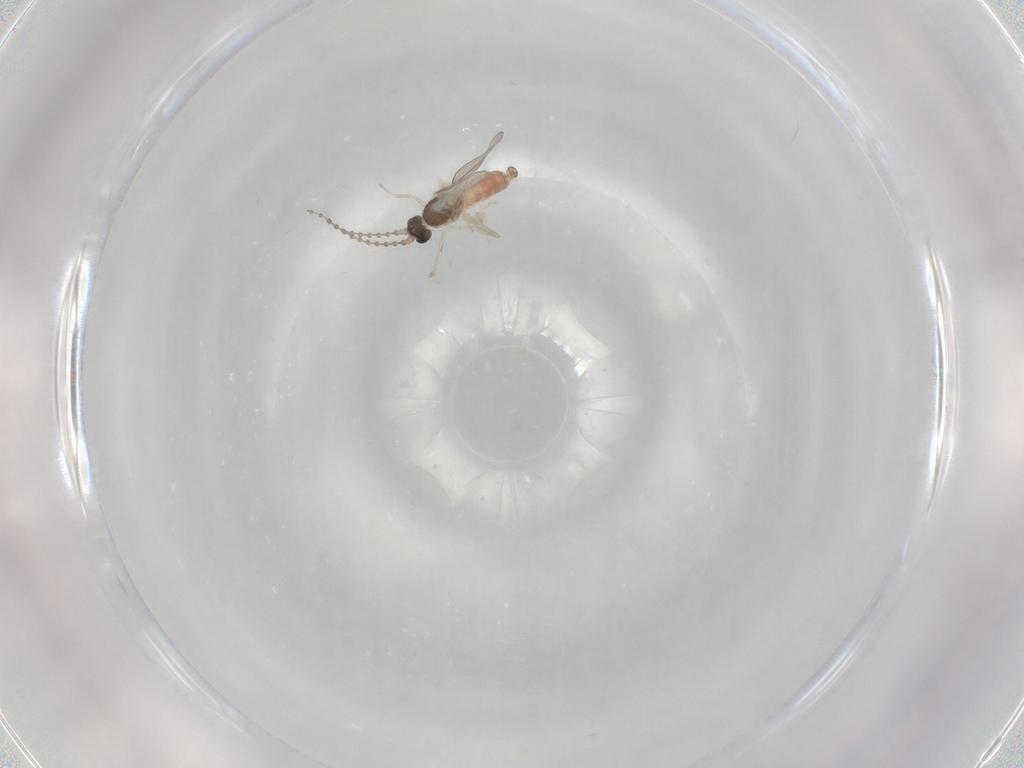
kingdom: Animalia
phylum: Arthropoda
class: Insecta
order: Diptera
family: Cecidomyiidae
